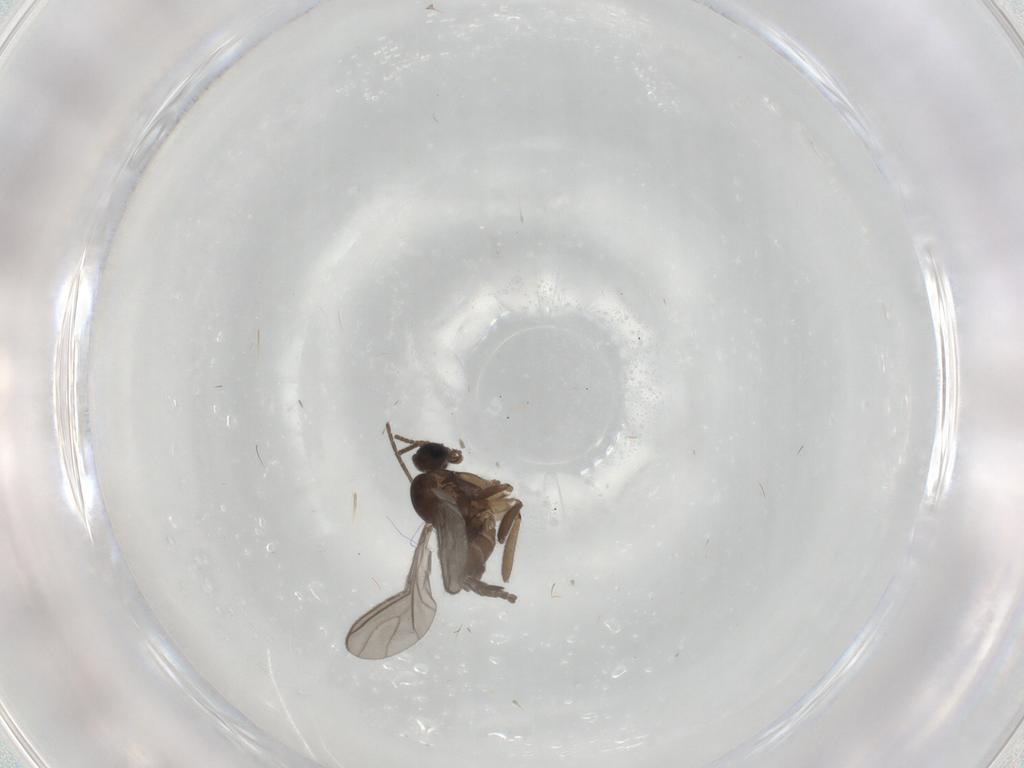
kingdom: Animalia
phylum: Arthropoda
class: Insecta
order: Diptera
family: Sciaridae
